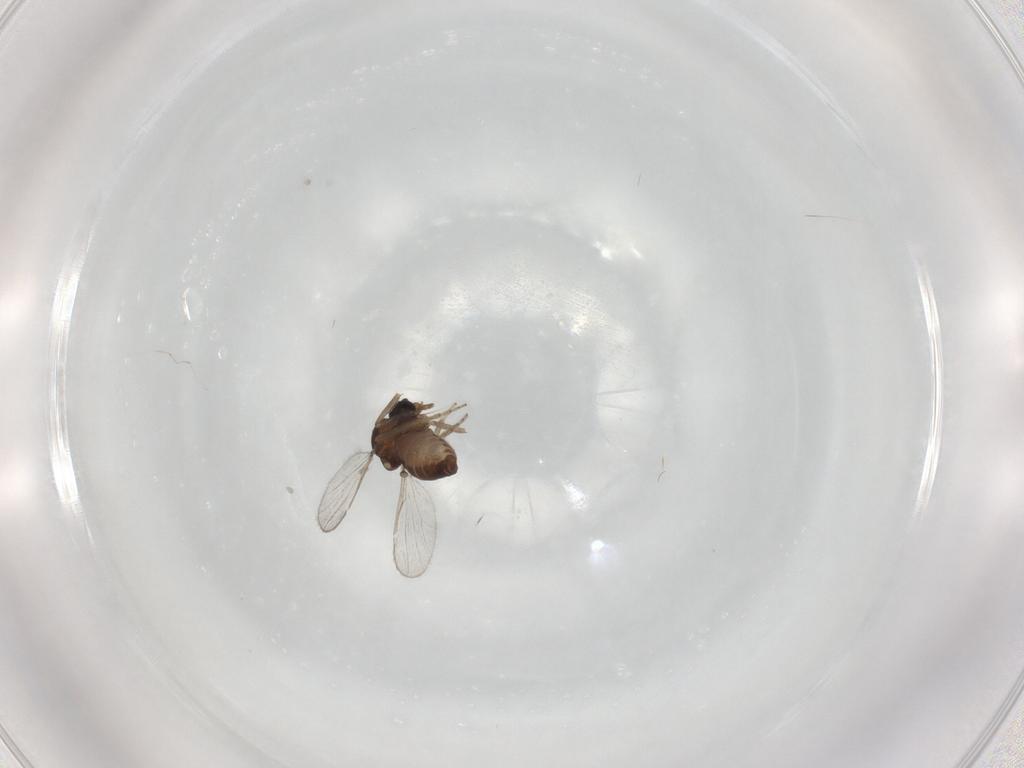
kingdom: Animalia
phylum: Arthropoda
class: Insecta
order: Diptera
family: Ceratopogonidae
